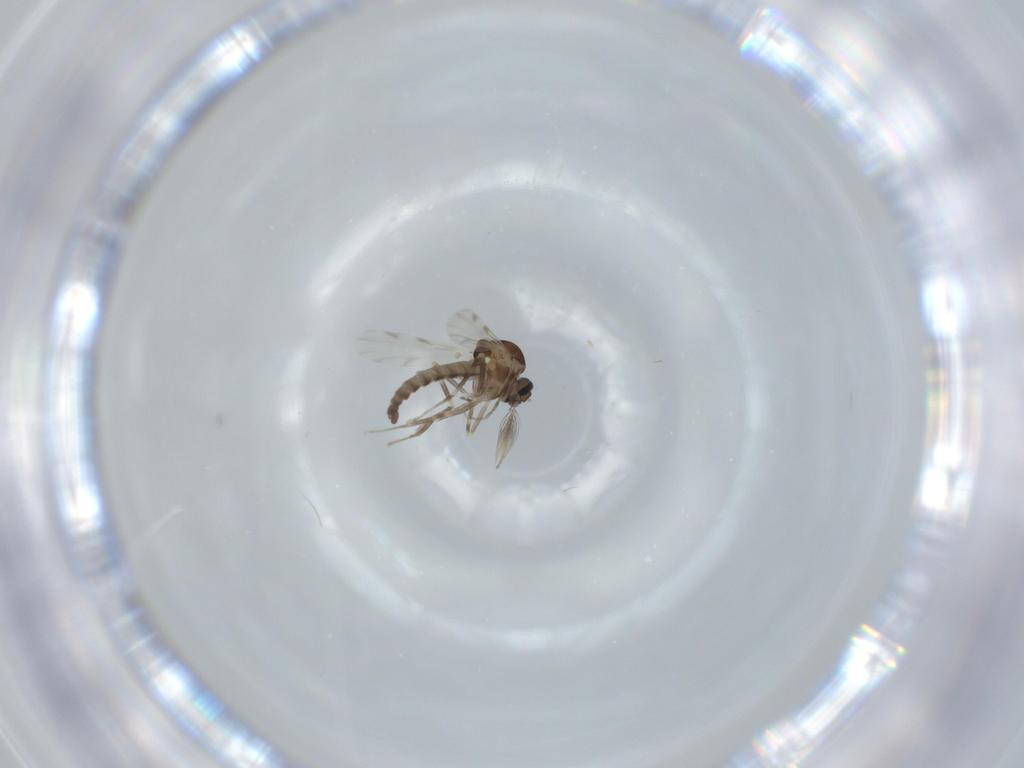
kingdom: Animalia
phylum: Arthropoda
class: Insecta
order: Diptera
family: Ceratopogonidae
